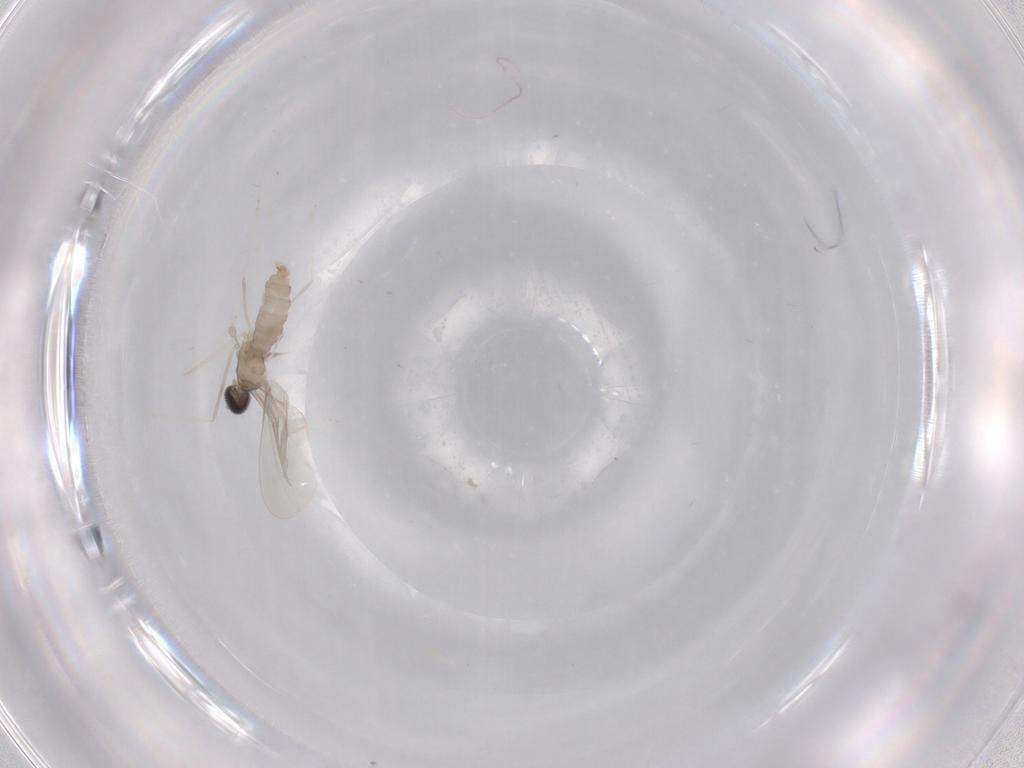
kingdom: Animalia
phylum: Arthropoda
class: Insecta
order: Diptera
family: Cecidomyiidae
